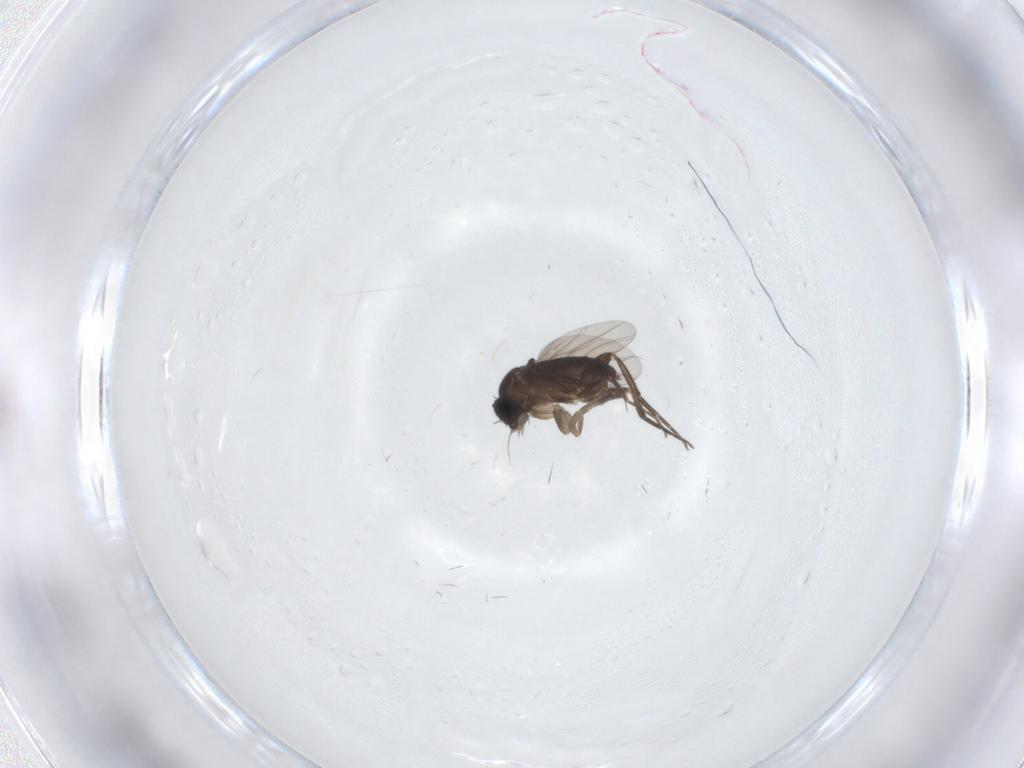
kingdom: Animalia
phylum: Arthropoda
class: Insecta
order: Diptera
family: Phoridae
